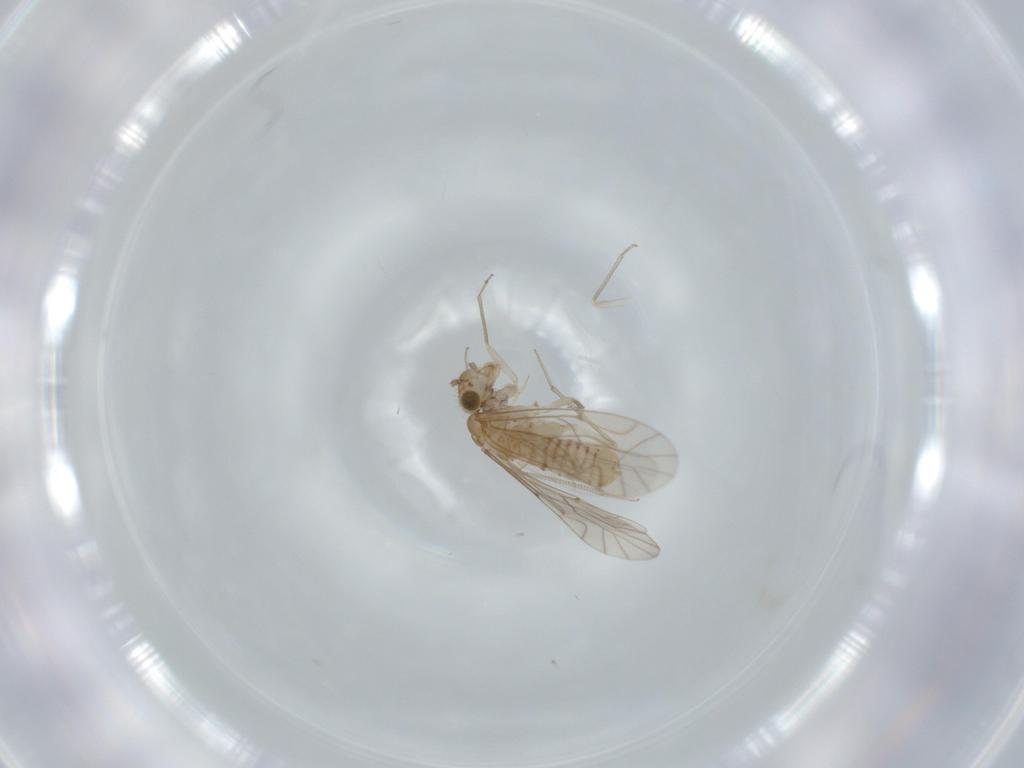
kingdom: Animalia
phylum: Arthropoda
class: Insecta
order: Psocodea
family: Lachesillidae
